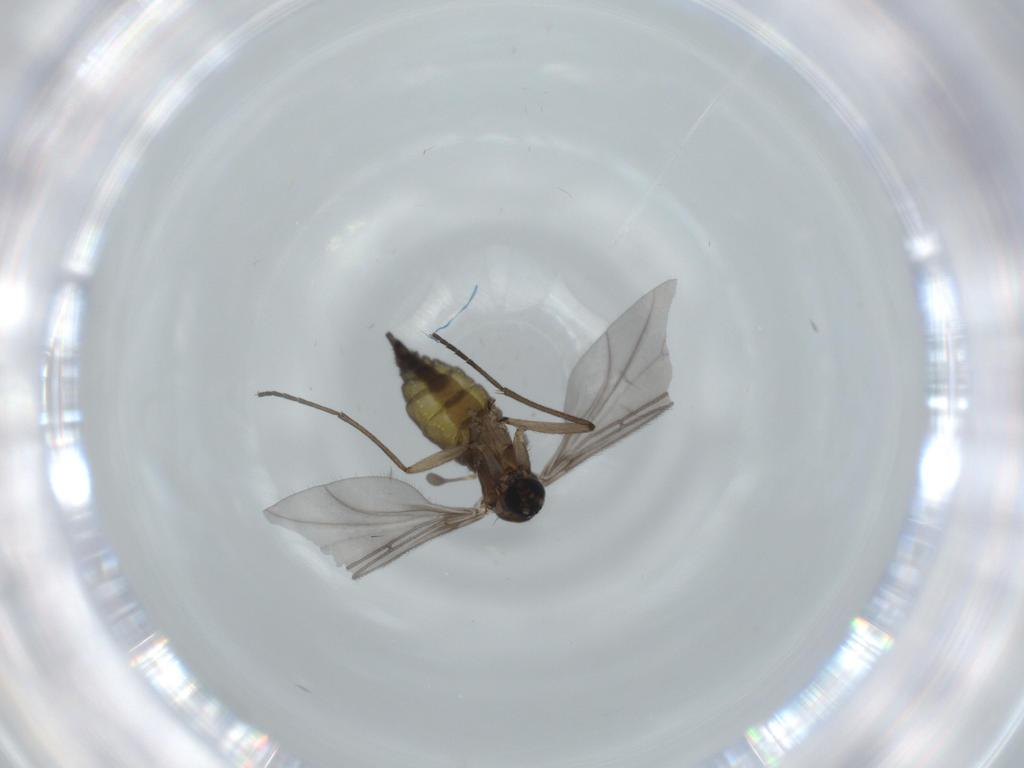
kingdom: Animalia
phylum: Arthropoda
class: Insecta
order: Diptera
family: Sciaridae
